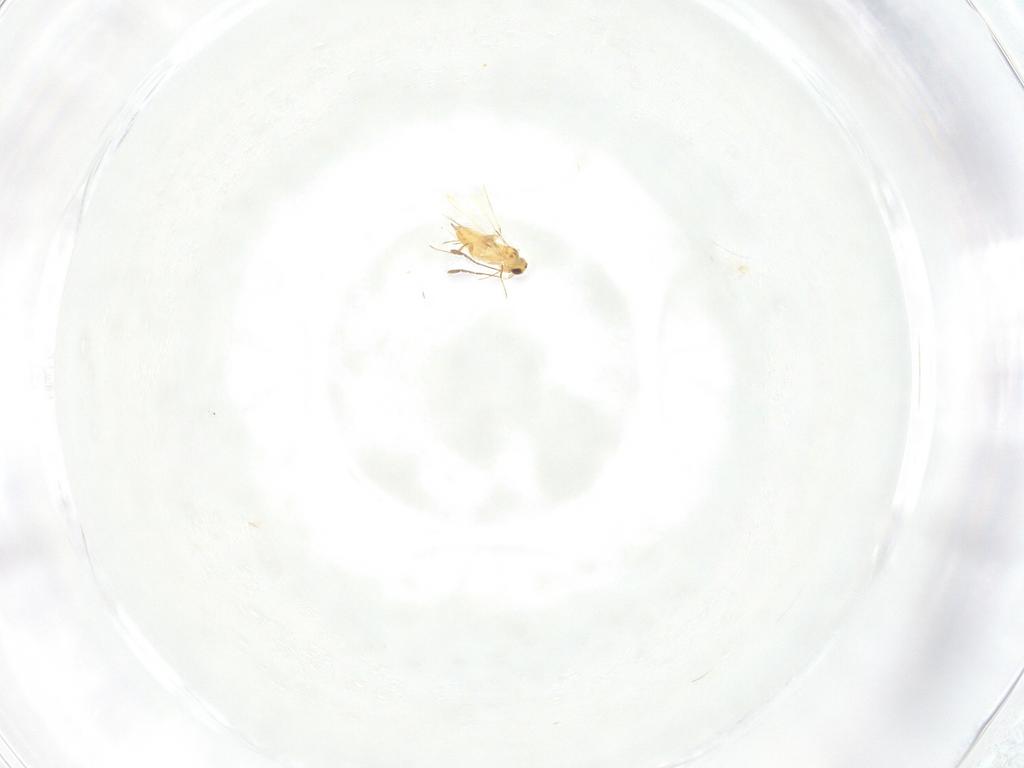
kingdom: Animalia
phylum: Arthropoda
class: Insecta
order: Hymenoptera
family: Mymaridae
